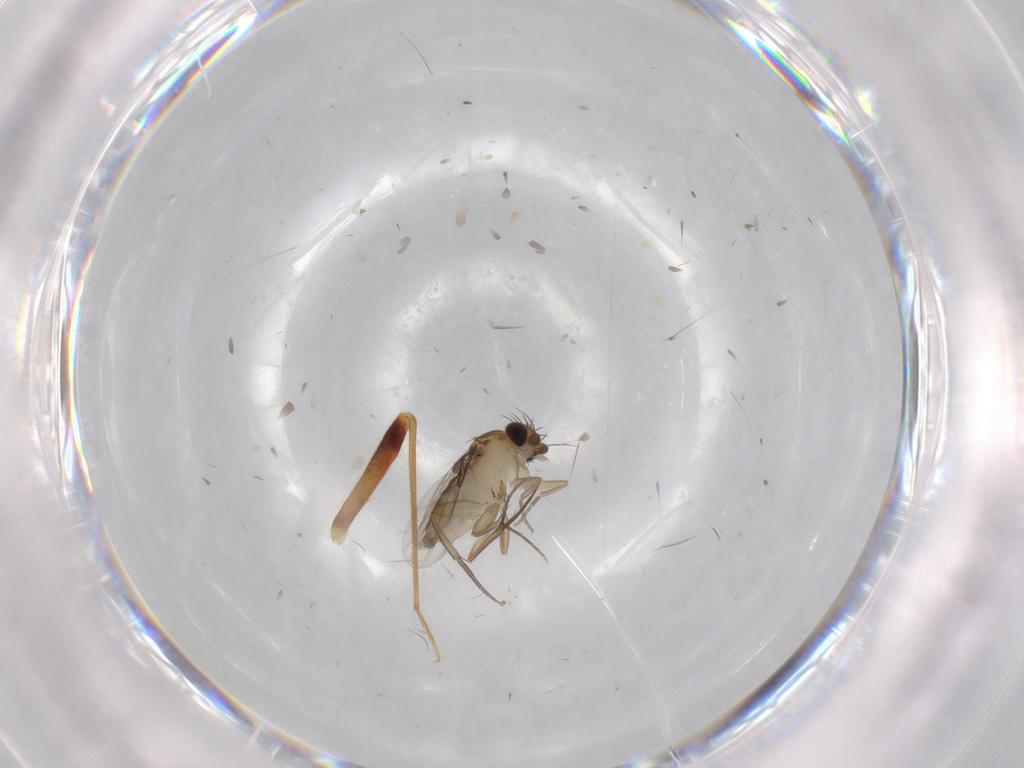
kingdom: Animalia
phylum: Arthropoda
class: Insecta
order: Diptera
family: Phoridae
